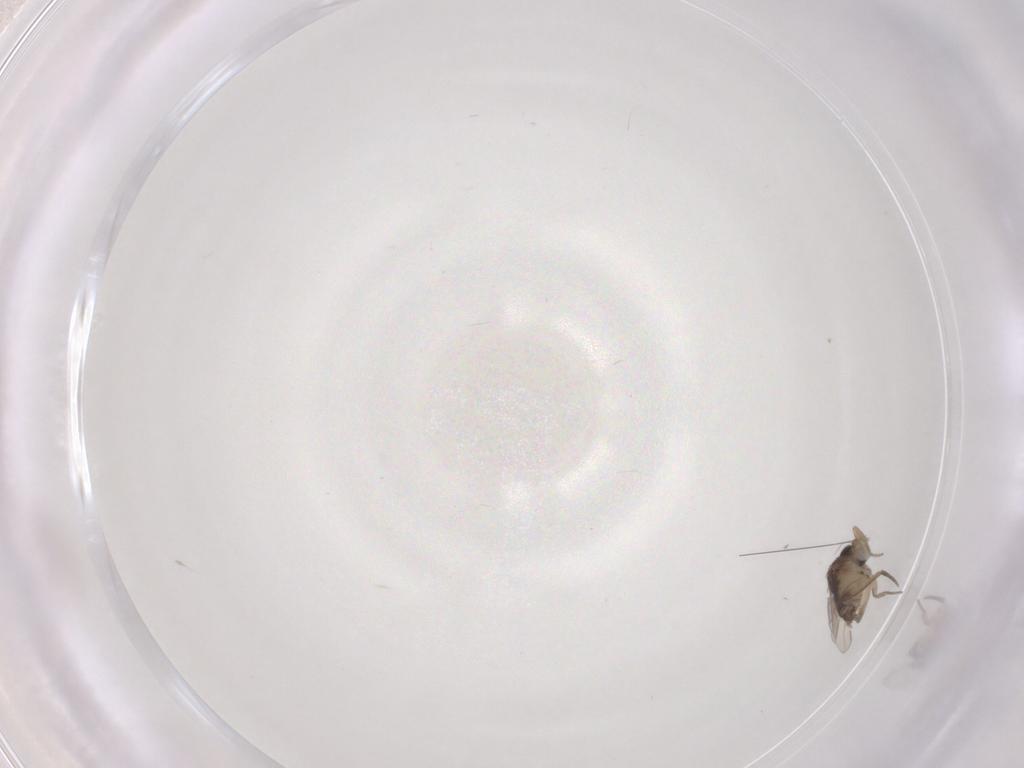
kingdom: Animalia
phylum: Arthropoda
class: Insecta
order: Diptera
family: Phoridae
